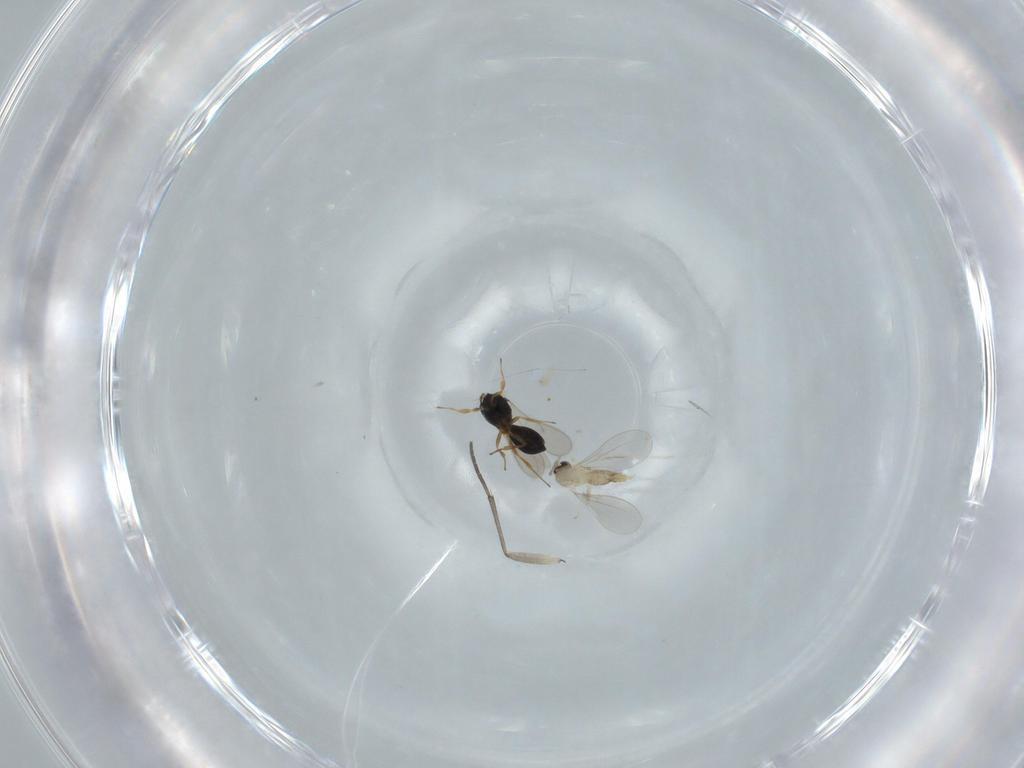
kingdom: Animalia
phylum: Arthropoda
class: Insecta
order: Hymenoptera
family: Scelionidae
